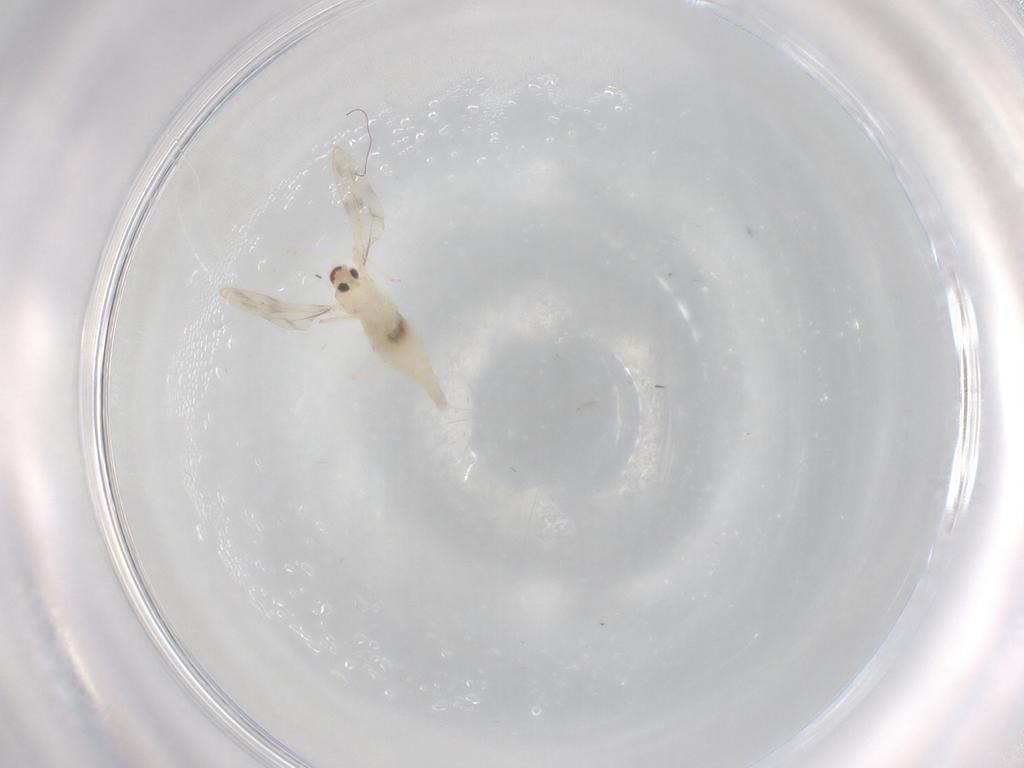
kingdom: Animalia
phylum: Arthropoda
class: Insecta
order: Diptera
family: Cecidomyiidae
